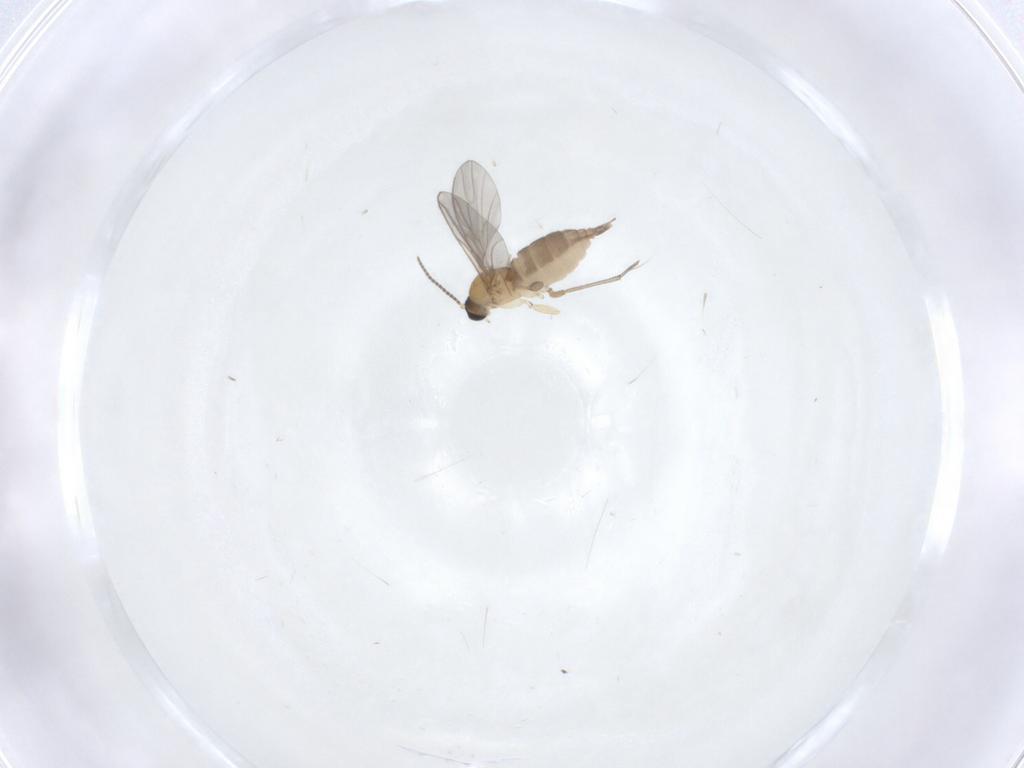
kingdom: Animalia
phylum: Arthropoda
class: Insecta
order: Diptera
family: Sciaridae
